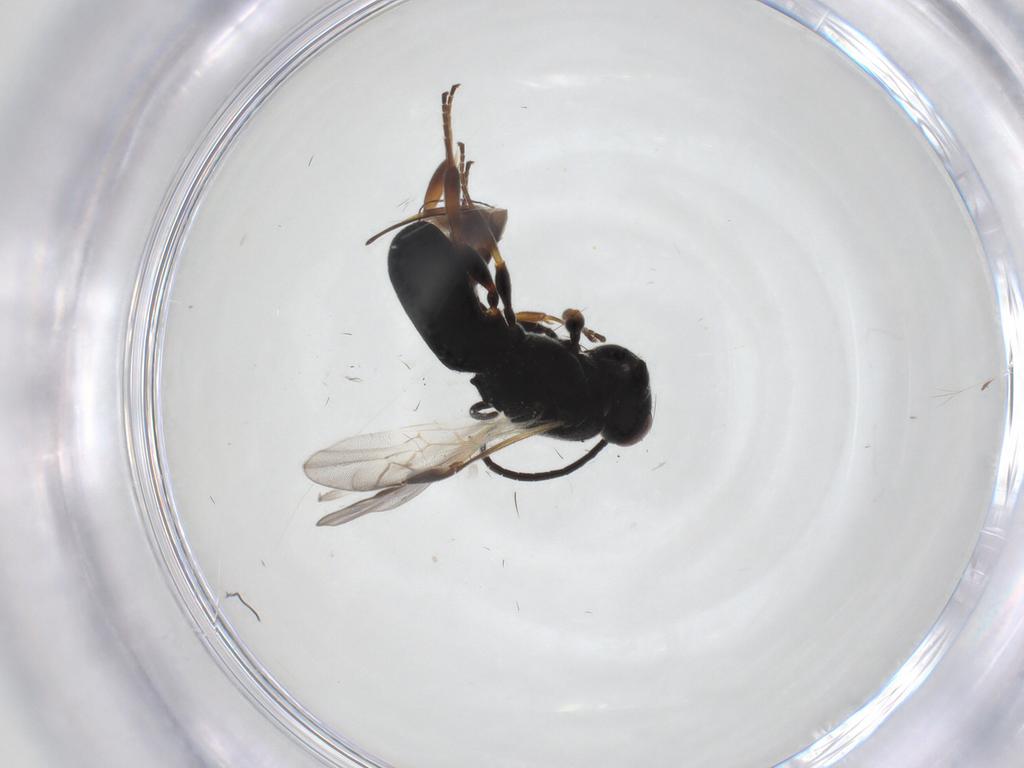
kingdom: Animalia
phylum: Arthropoda
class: Insecta
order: Hymenoptera
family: Braconidae
